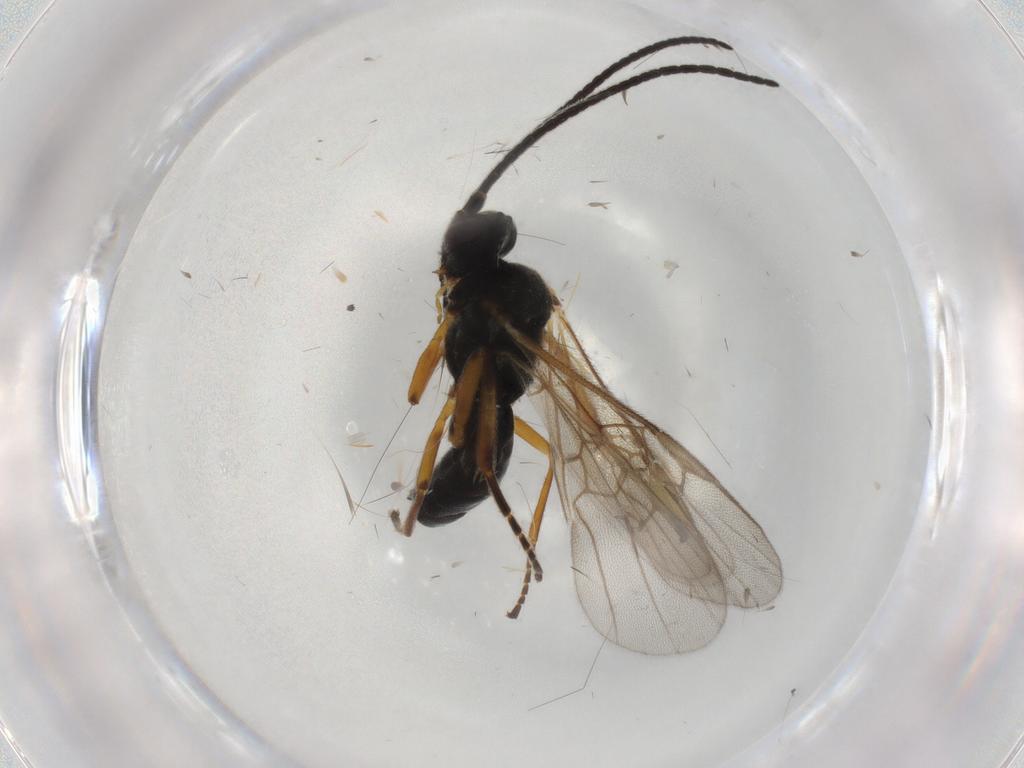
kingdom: Animalia
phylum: Arthropoda
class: Insecta
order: Hymenoptera
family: Braconidae
